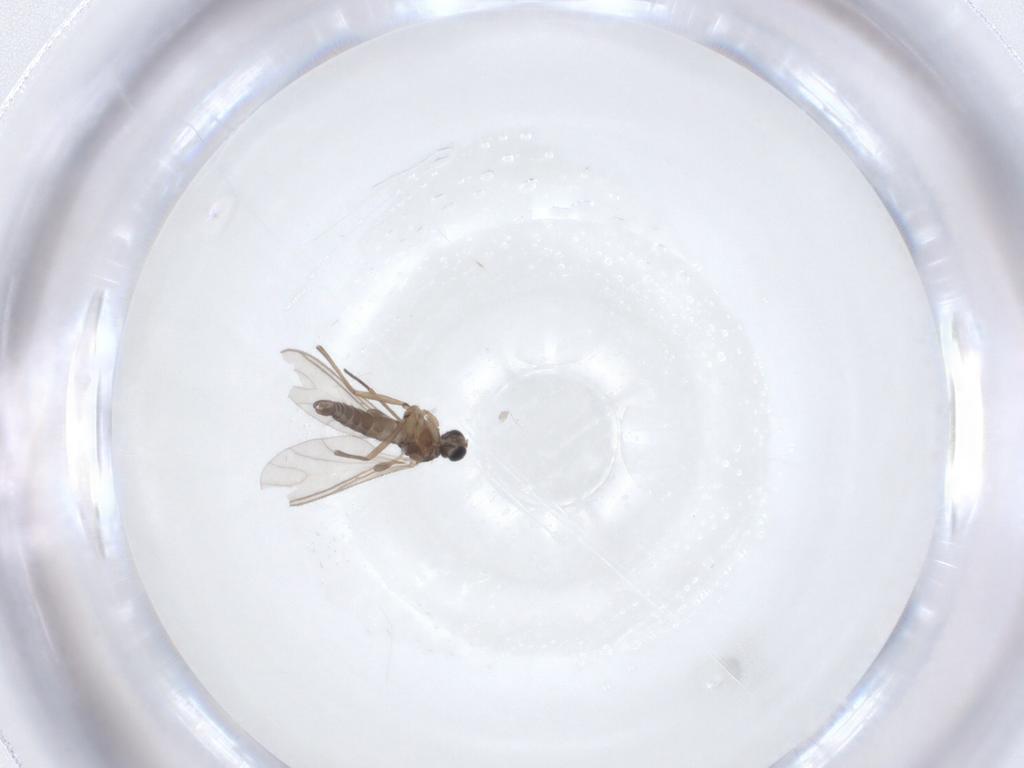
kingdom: Animalia
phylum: Arthropoda
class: Insecta
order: Diptera
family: Sciaridae
